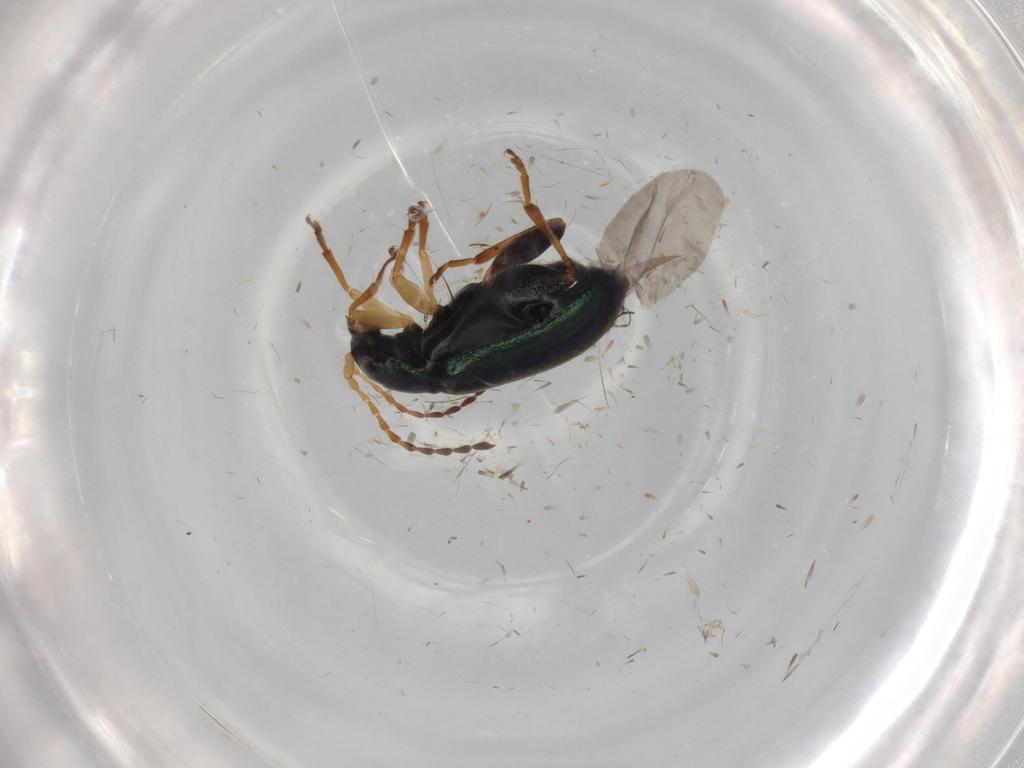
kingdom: Animalia
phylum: Arthropoda
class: Insecta
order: Coleoptera
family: Chrysomelidae
